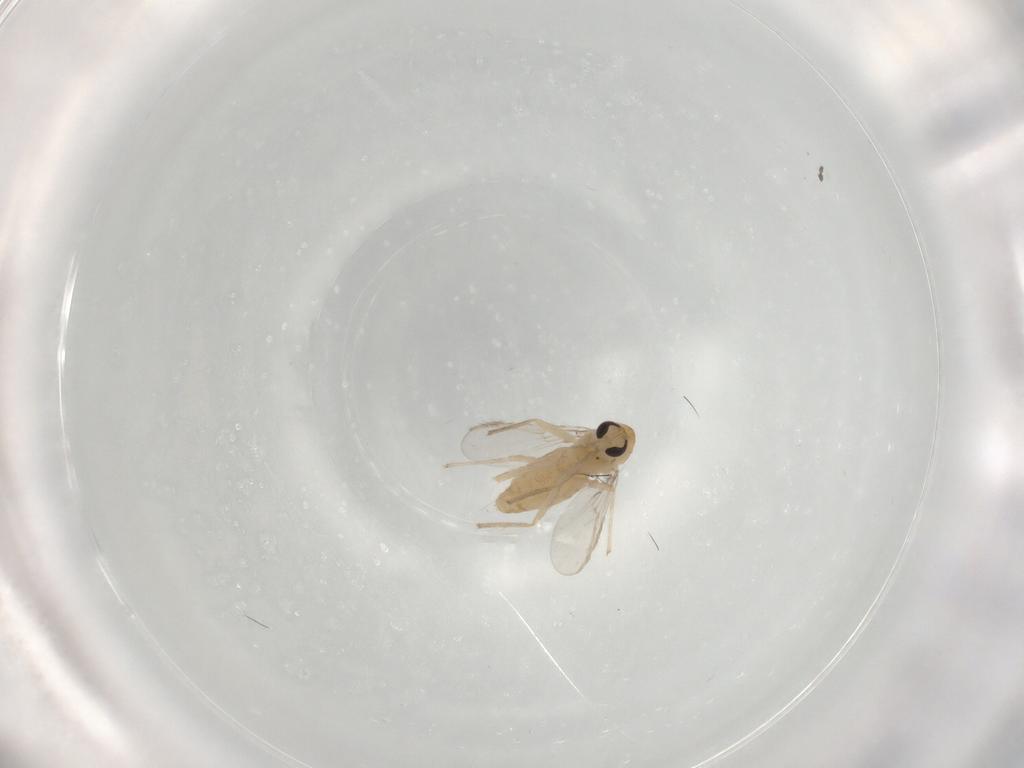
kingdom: Animalia
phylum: Arthropoda
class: Insecta
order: Diptera
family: Chironomidae
